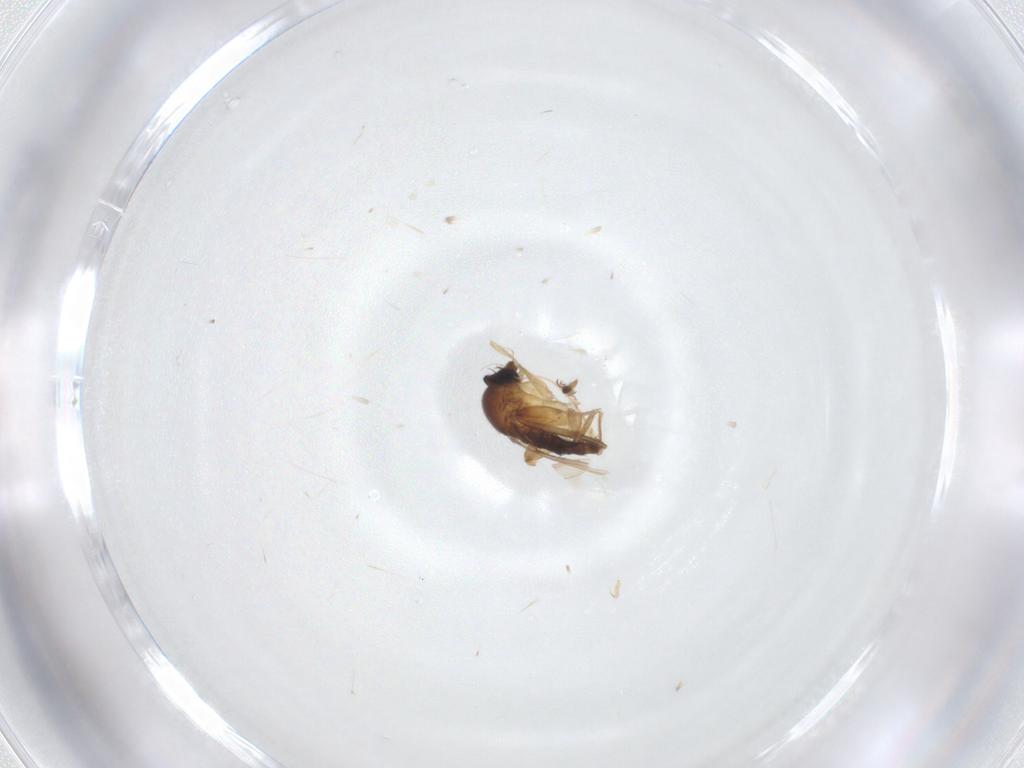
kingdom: Animalia
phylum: Arthropoda
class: Insecta
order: Diptera
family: Phoridae
